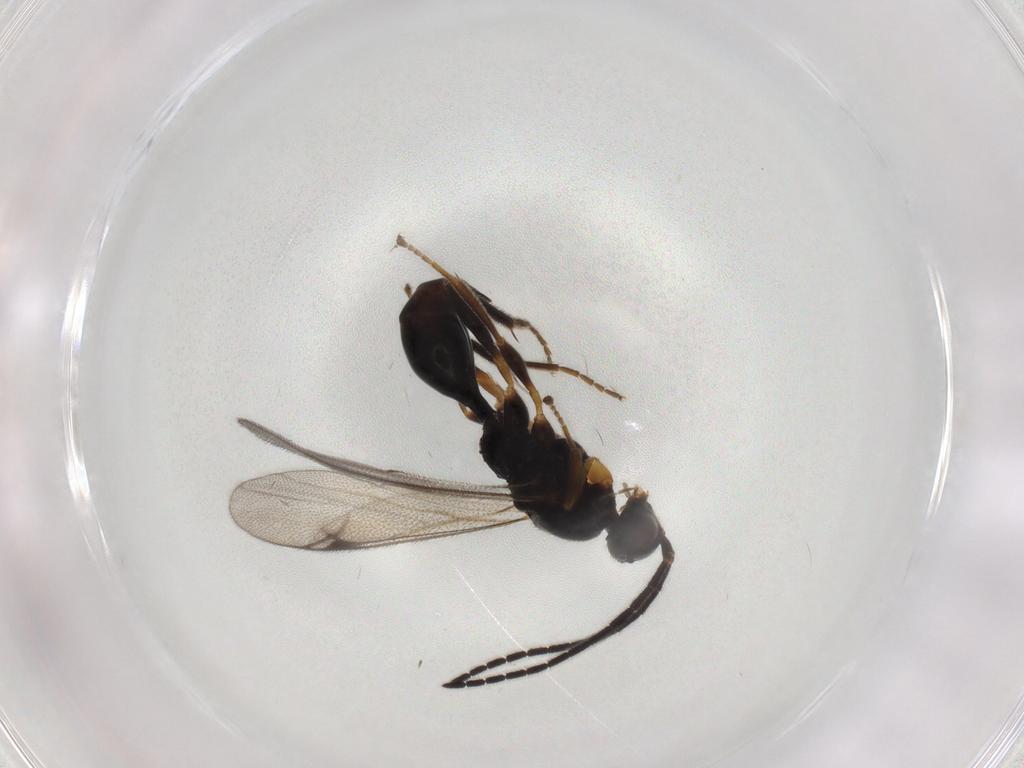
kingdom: Animalia
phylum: Arthropoda
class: Insecta
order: Hymenoptera
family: Proctotrupidae
